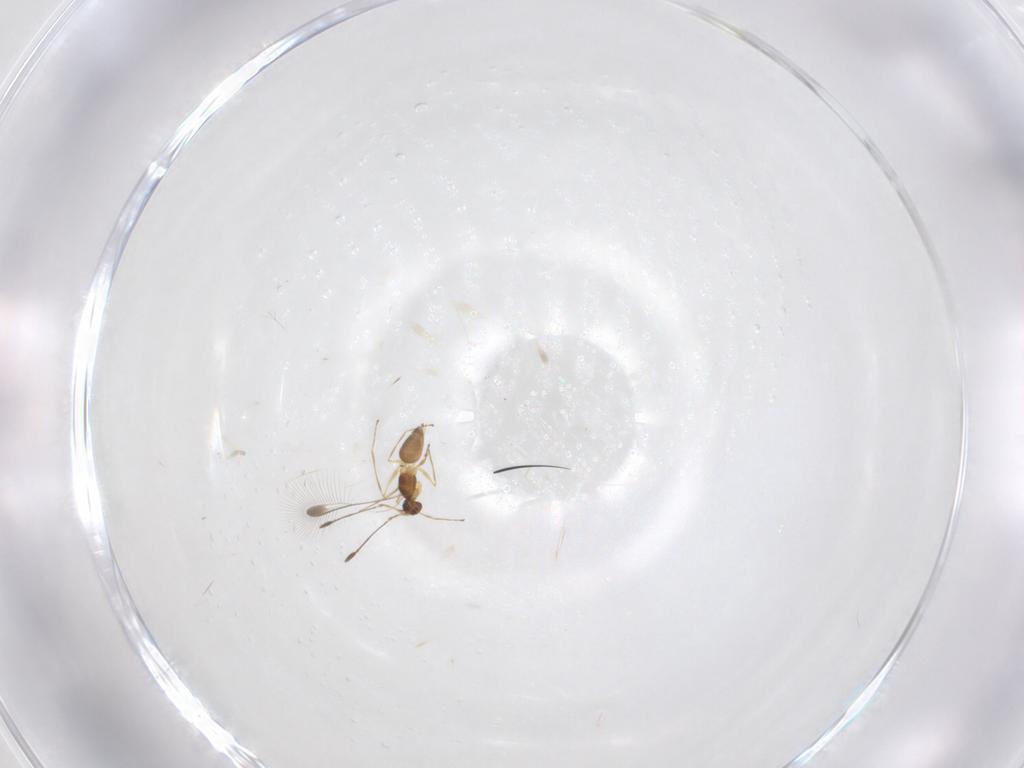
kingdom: Animalia
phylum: Arthropoda
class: Insecta
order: Hymenoptera
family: Mymaridae
